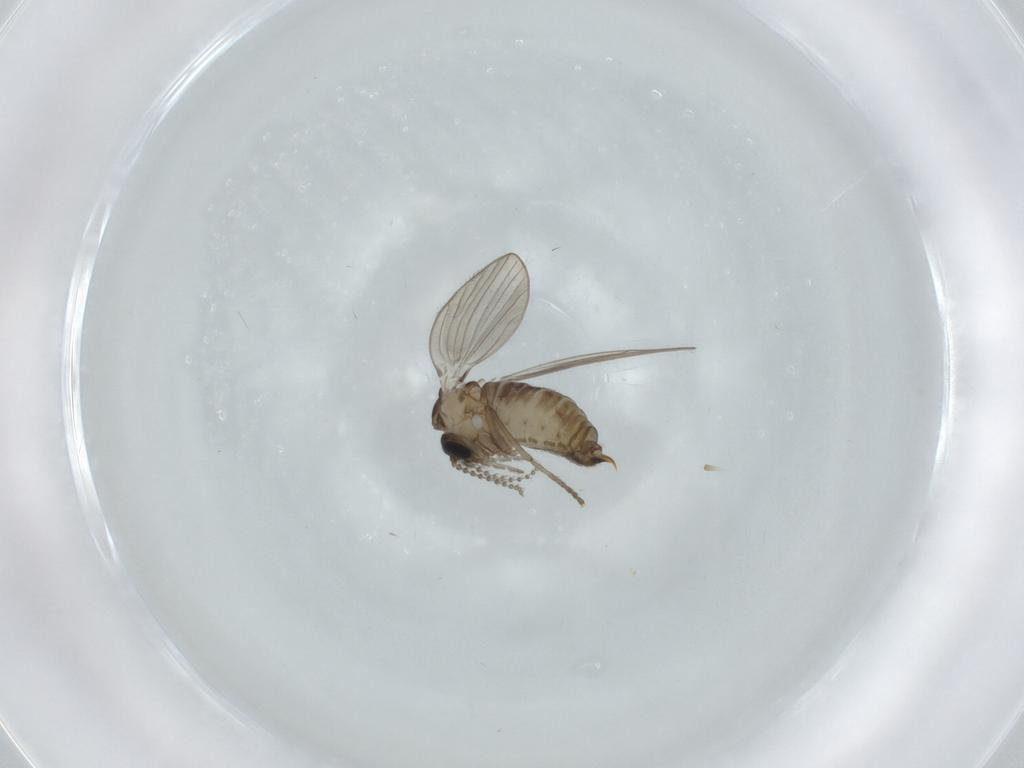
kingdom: Animalia
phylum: Arthropoda
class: Insecta
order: Diptera
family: Psychodidae
